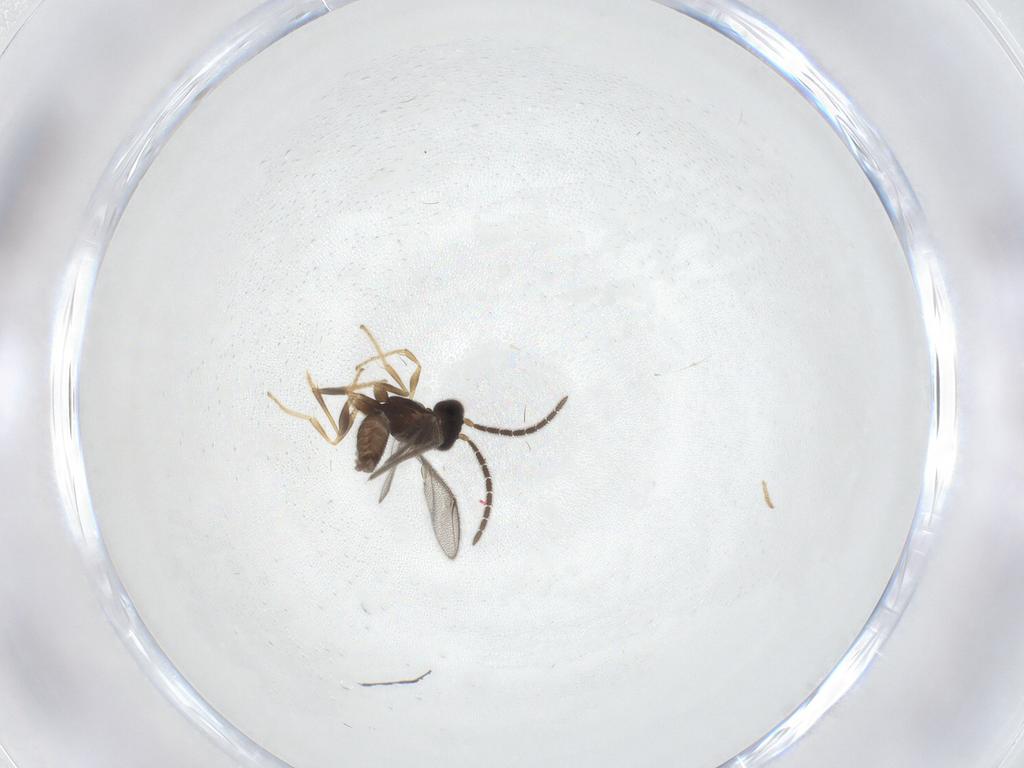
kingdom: Animalia
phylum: Arthropoda
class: Insecta
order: Hymenoptera
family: Dryinidae
